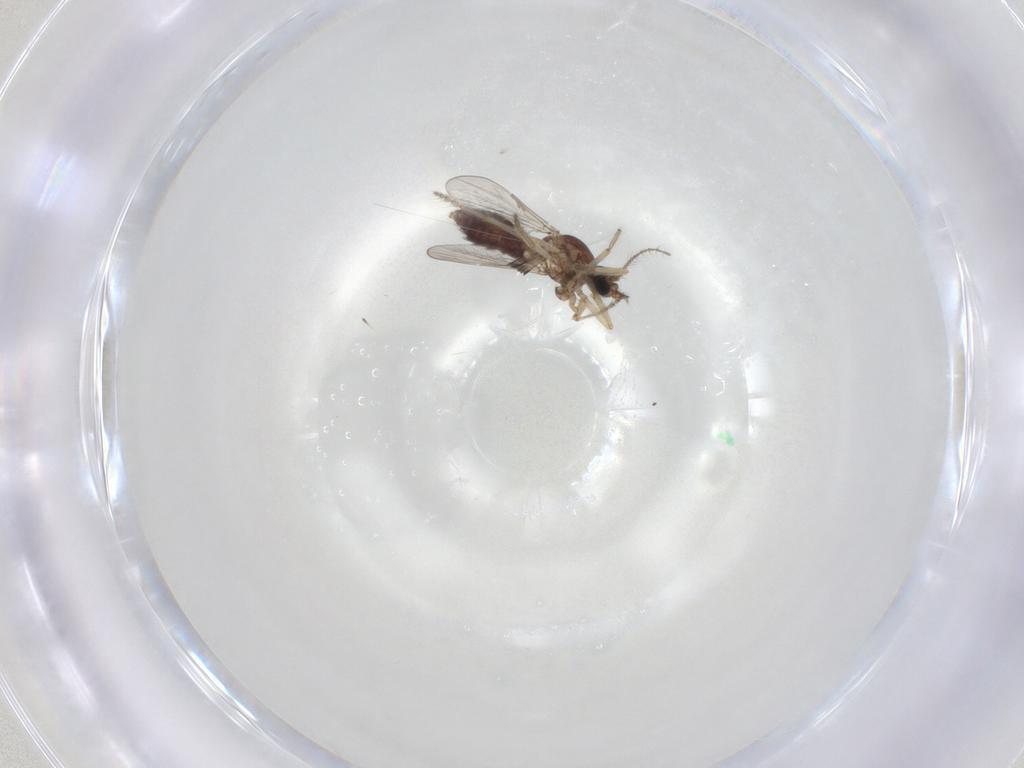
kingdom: Animalia
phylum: Arthropoda
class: Insecta
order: Diptera
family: Ceratopogonidae
